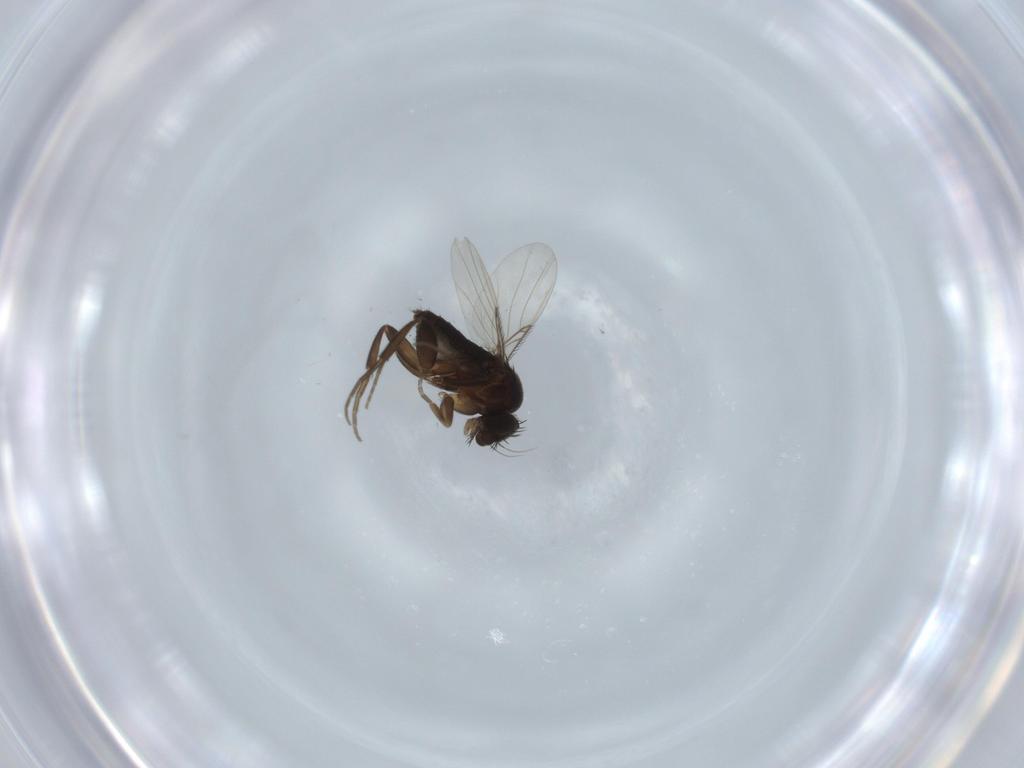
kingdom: Animalia
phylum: Arthropoda
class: Insecta
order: Diptera
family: Phoridae
